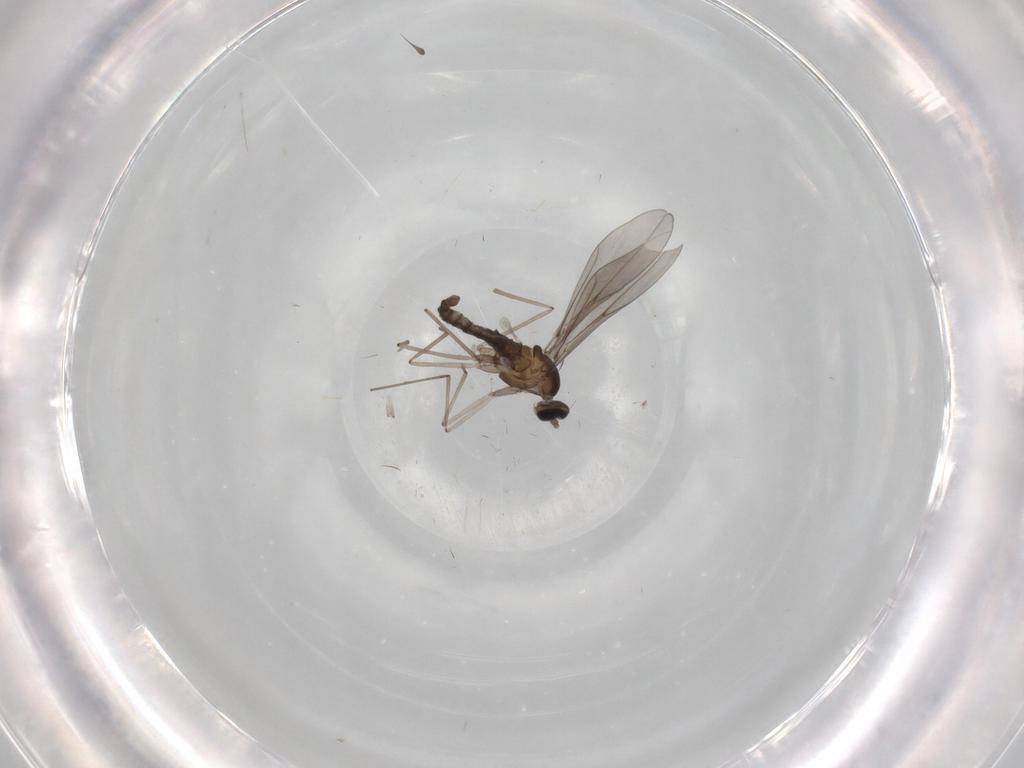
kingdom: Animalia
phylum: Arthropoda
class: Insecta
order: Diptera
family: Cecidomyiidae
